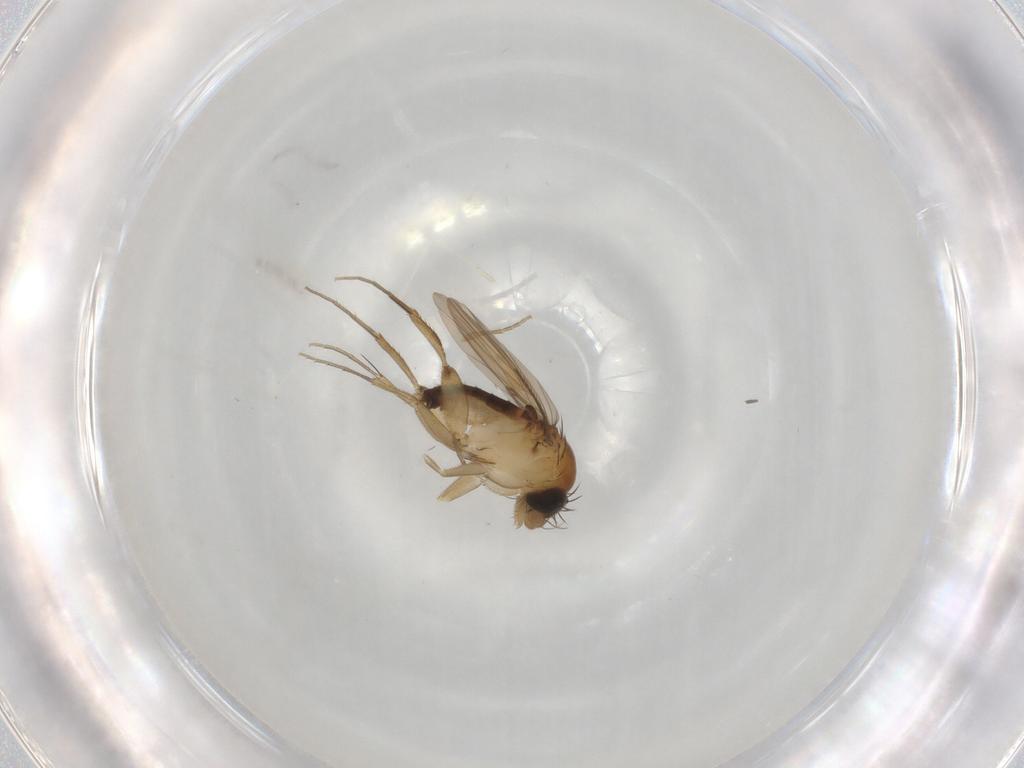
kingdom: Animalia
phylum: Arthropoda
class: Insecta
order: Diptera
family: Phoridae
